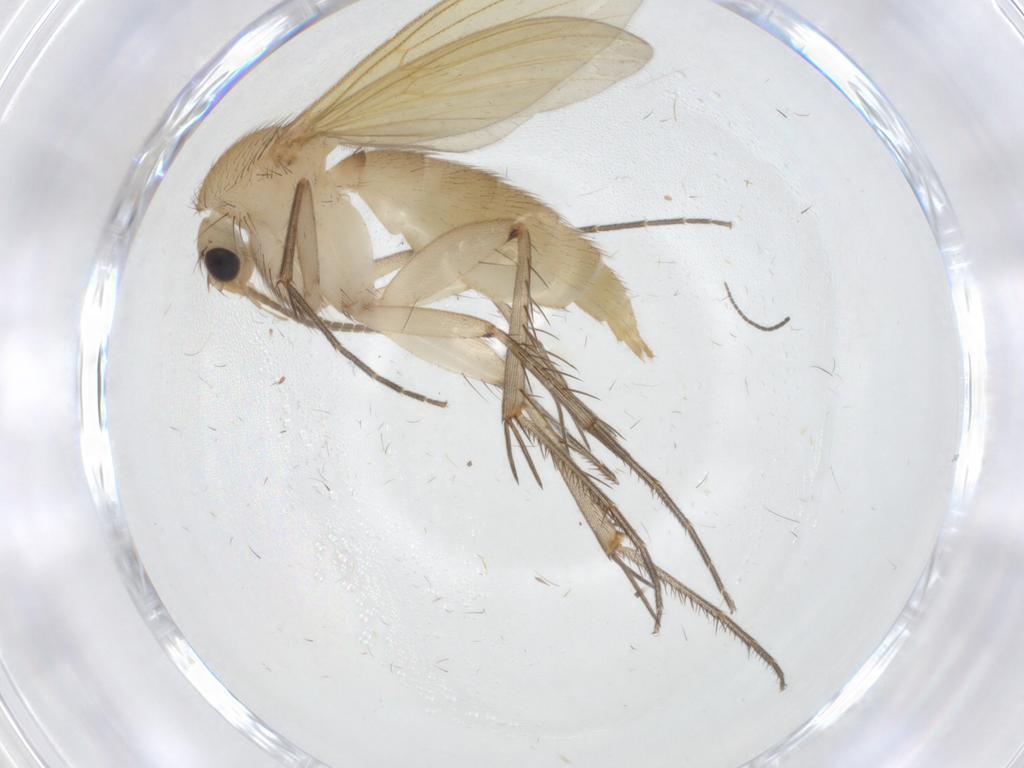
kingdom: Animalia
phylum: Arthropoda
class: Insecta
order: Diptera
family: Phoridae
